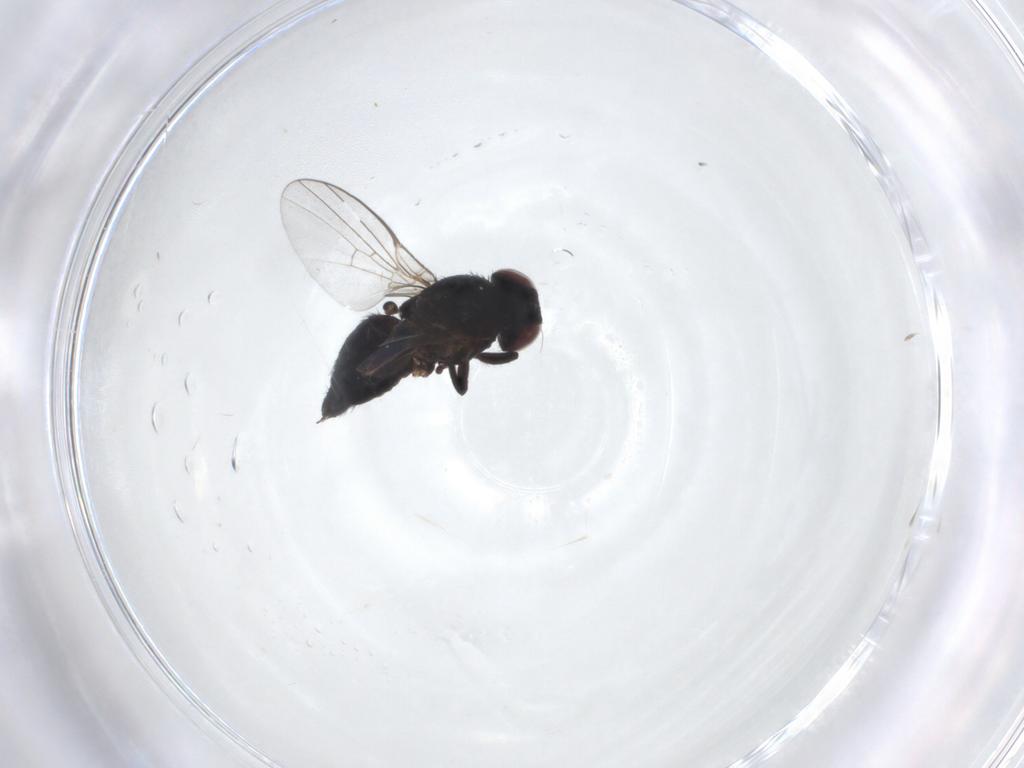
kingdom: Animalia
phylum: Arthropoda
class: Insecta
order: Diptera
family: Agromyzidae
